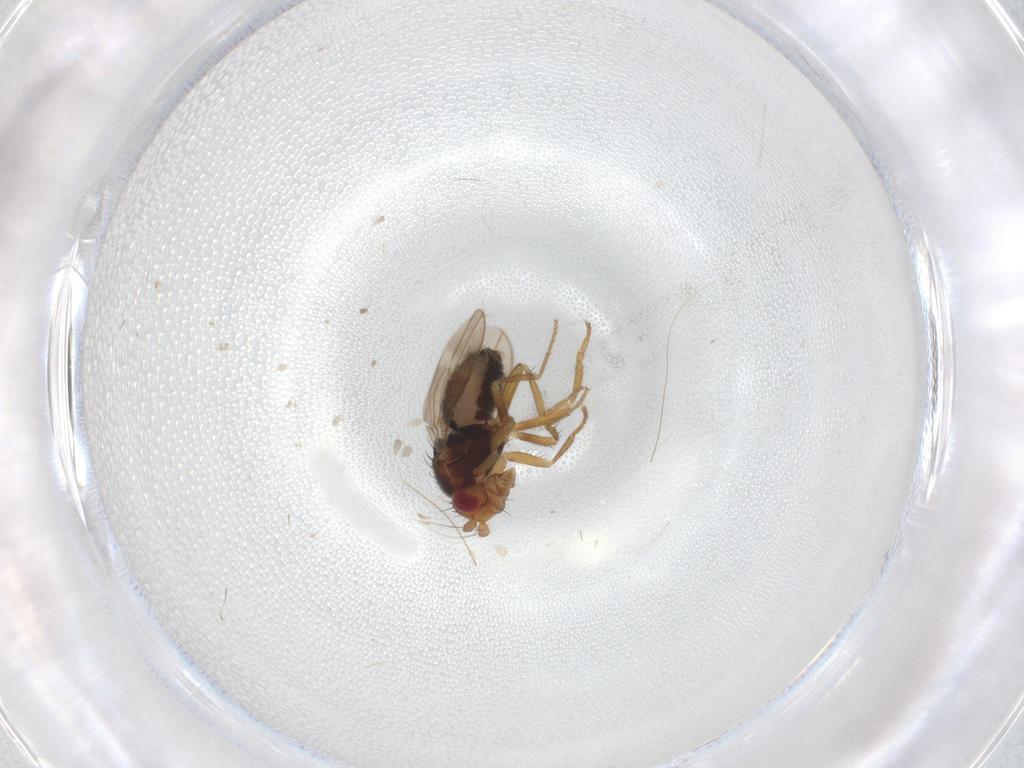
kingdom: Animalia
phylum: Arthropoda
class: Insecta
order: Diptera
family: Sphaeroceridae
